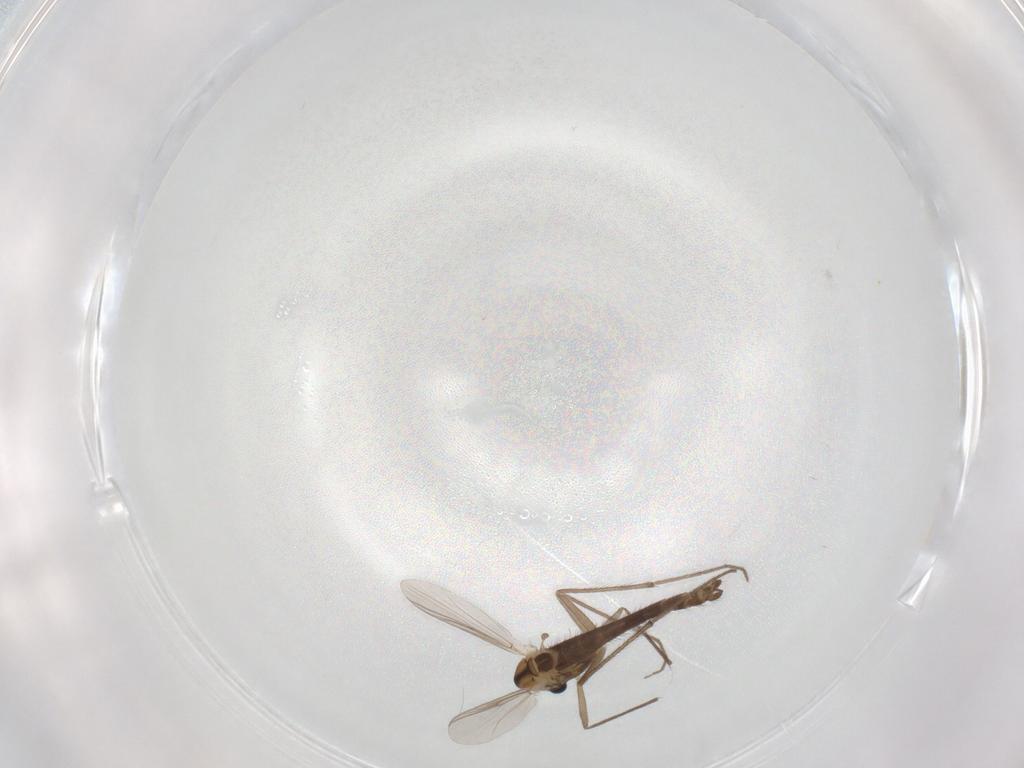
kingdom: Animalia
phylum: Arthropoda
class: Insecta
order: Diptera
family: Chironomidae
